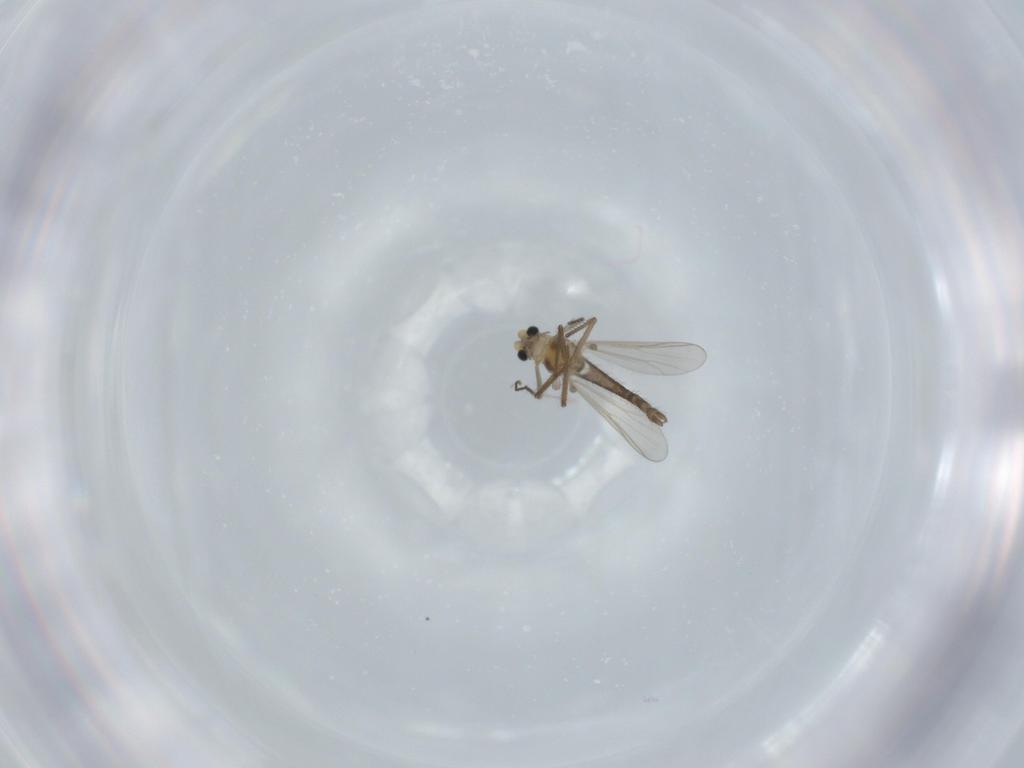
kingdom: Animalia
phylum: Arthropoda
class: Insecta
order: Diptera
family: Chironomidae
